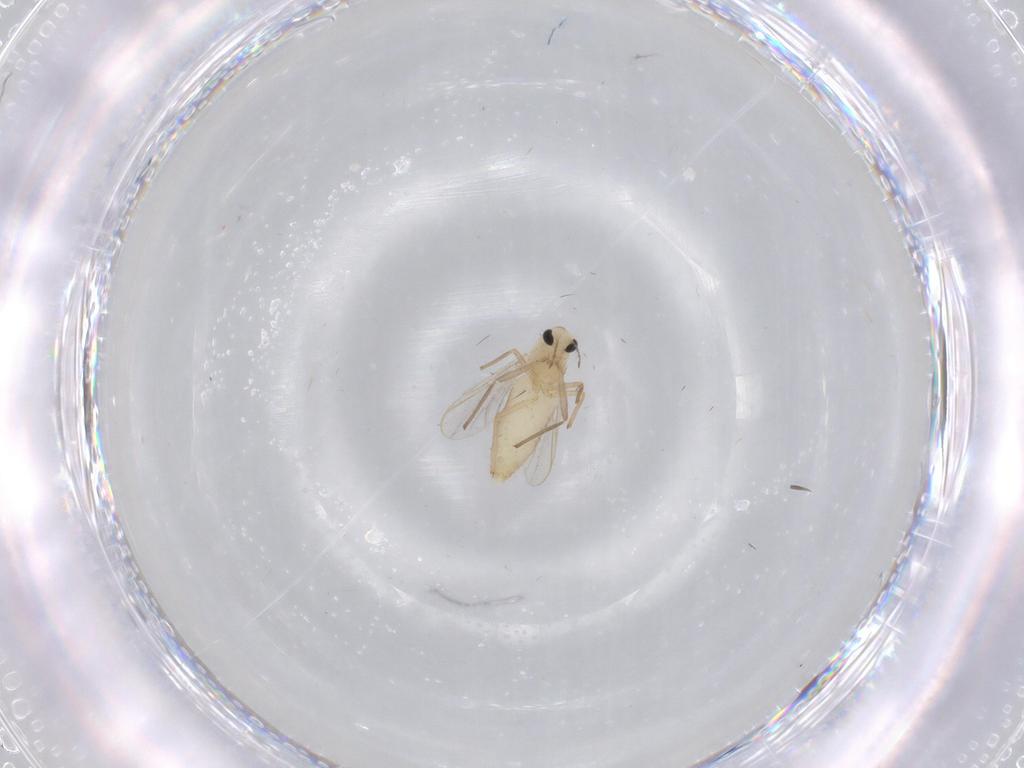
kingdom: Animalia
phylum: Arthropoda
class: Insecta
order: Diptera
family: Chironomidae
